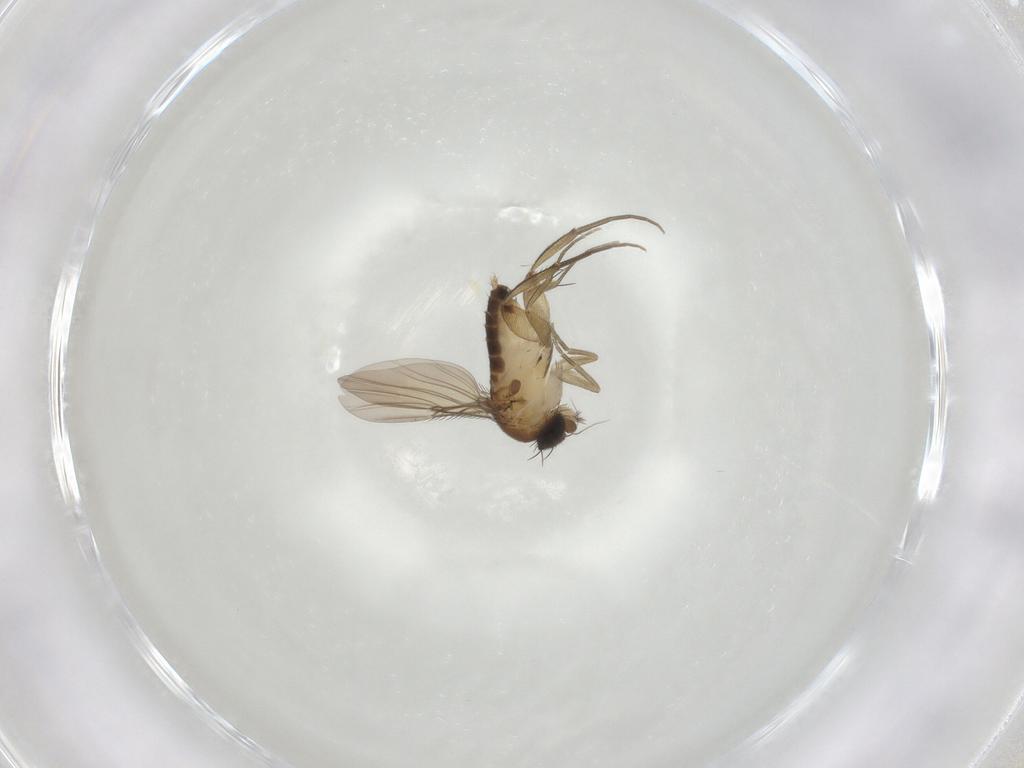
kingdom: Animalia
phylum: Arthropoda
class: Insecta
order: Diptera
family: Phoridae
